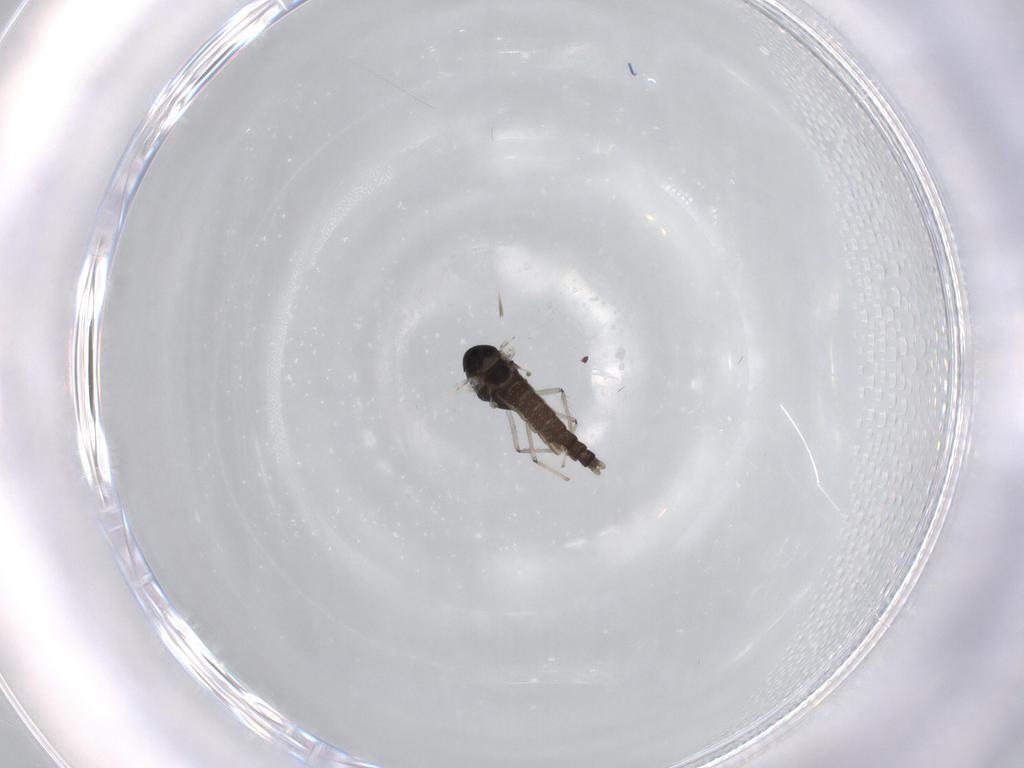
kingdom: Animalia
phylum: Arthropoda
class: Insecta
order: Diptera
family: Chironomidae
